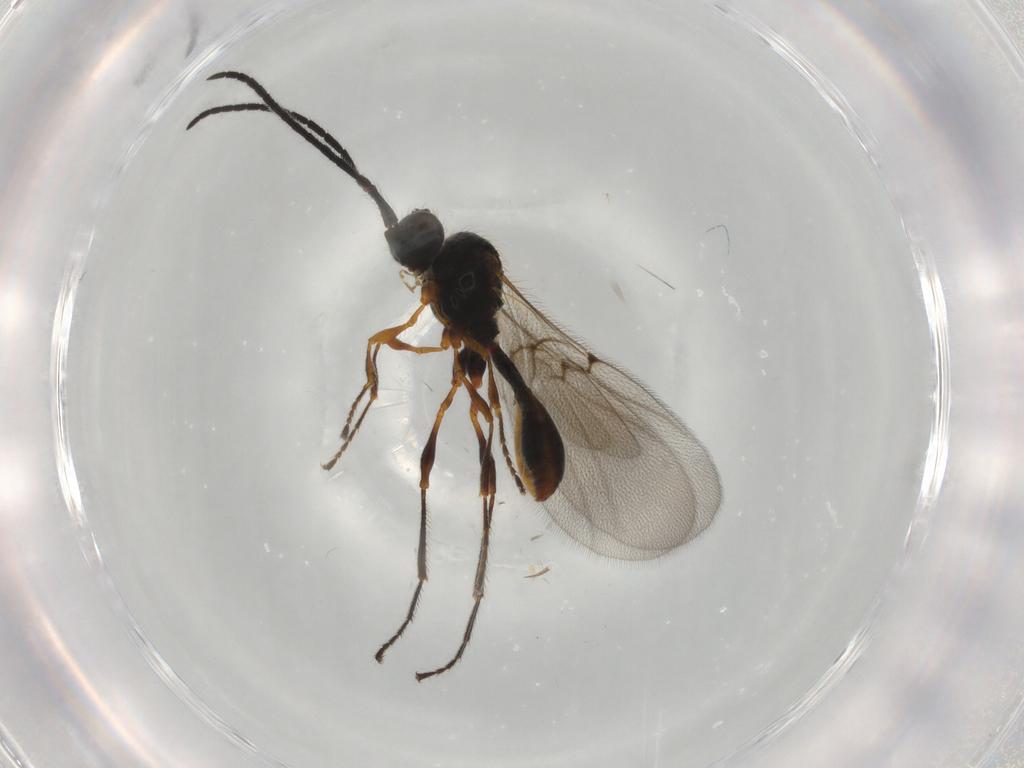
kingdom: Animalia
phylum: Arthropoda
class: Insecta
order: Hymenoptera
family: Diapriidae
